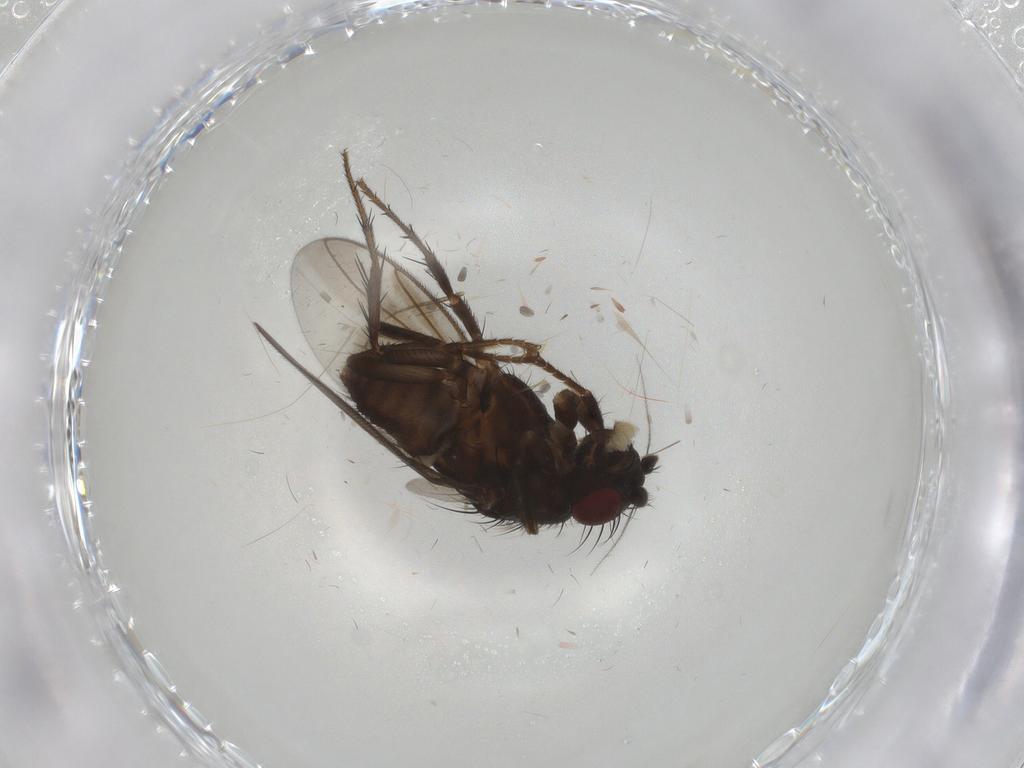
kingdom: Animalia
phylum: Arthropoda
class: Insecta
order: Diptera
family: Sphaeroceridae
